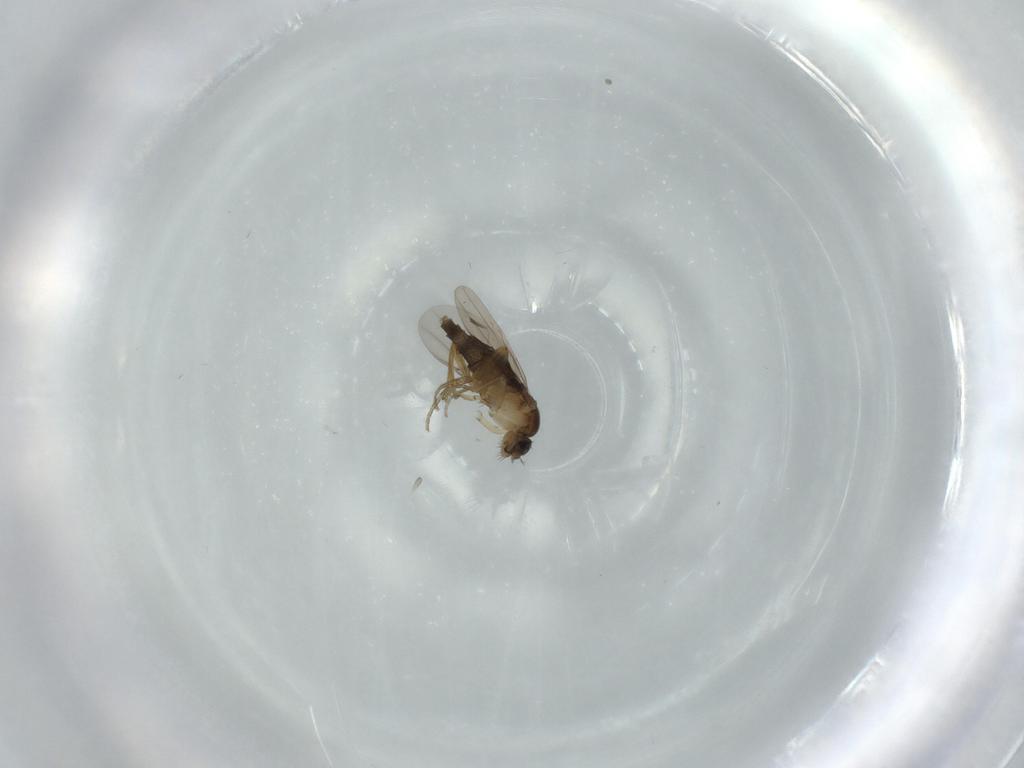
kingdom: Animalia
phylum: Arthropoda
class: Insecta
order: Diptera
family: Phoridae
